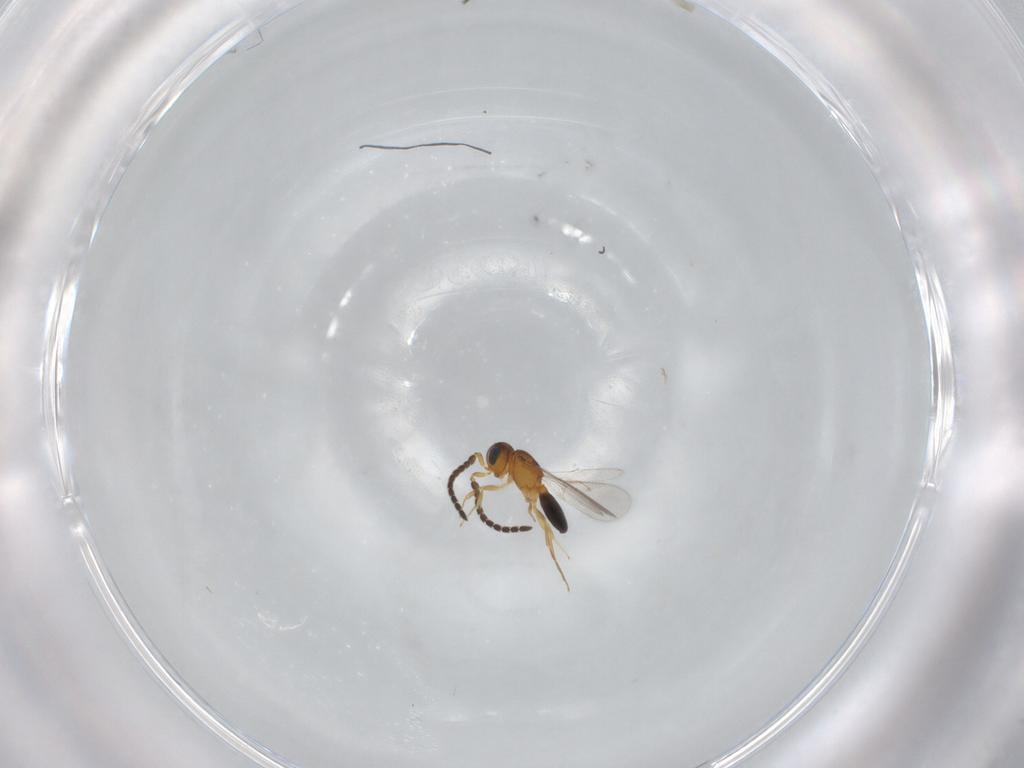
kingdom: Animalia
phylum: Arthropoda
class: Insecta
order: Hymenoptera
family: Scelionidae
